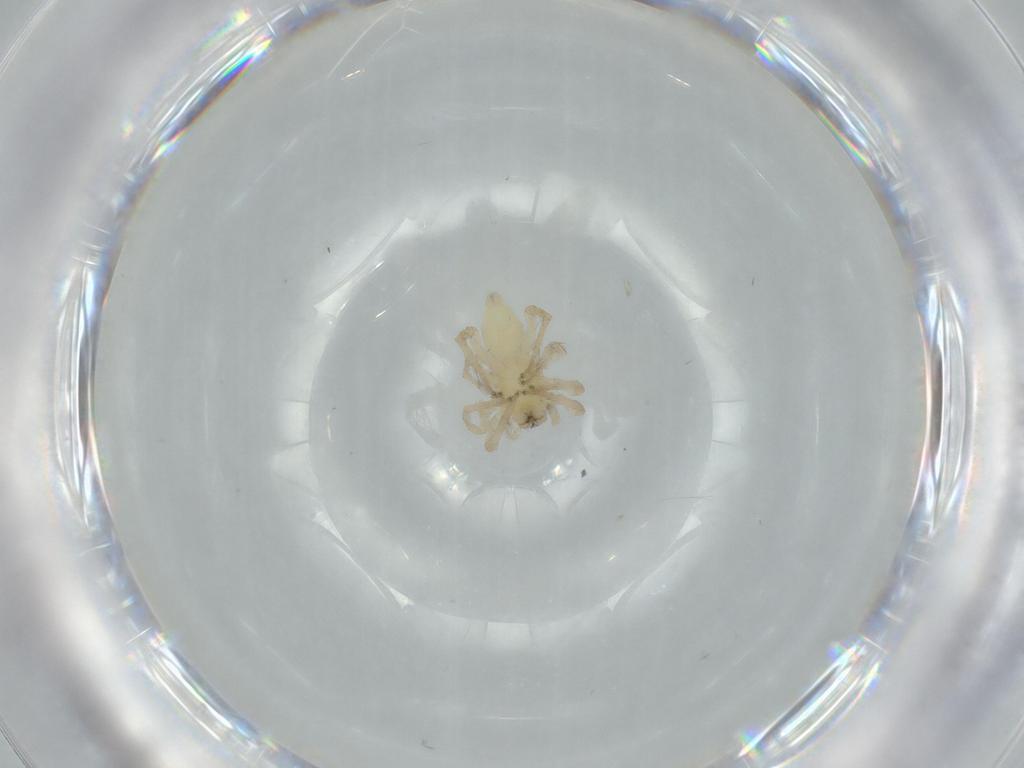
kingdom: Animalia
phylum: Arthropoda
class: Arachnida
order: Araneae
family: Anyphaenidae
